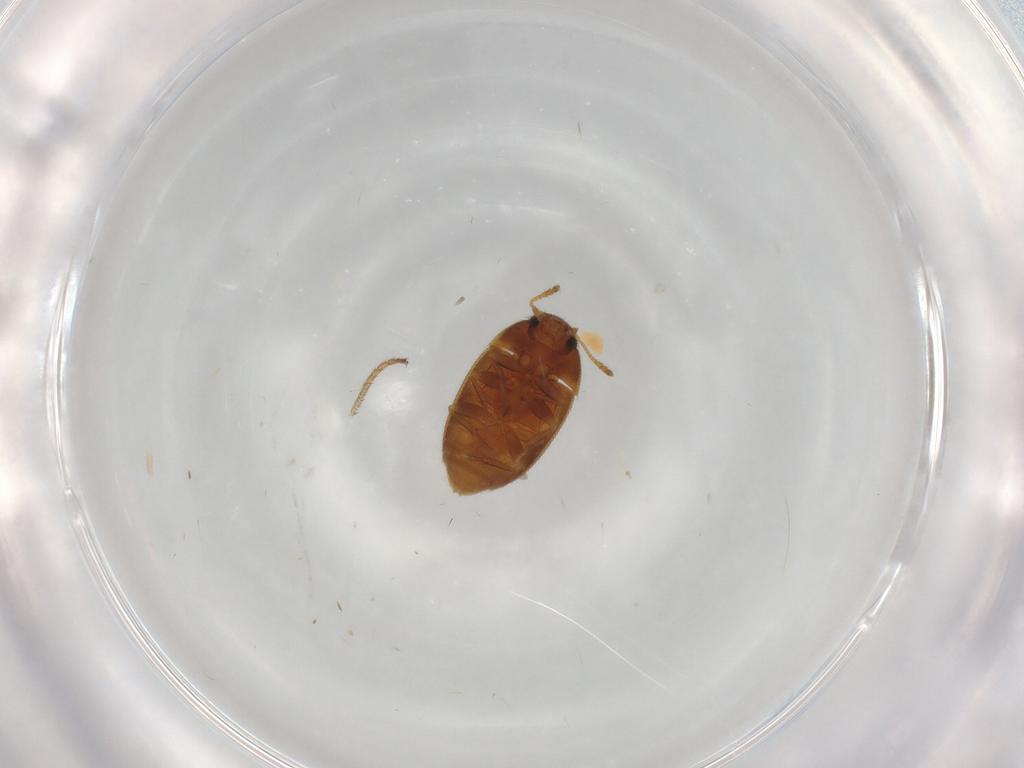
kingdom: Animalia
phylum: Arthropoda
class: Insecta
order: Coleoptera
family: Mycetophagidae
